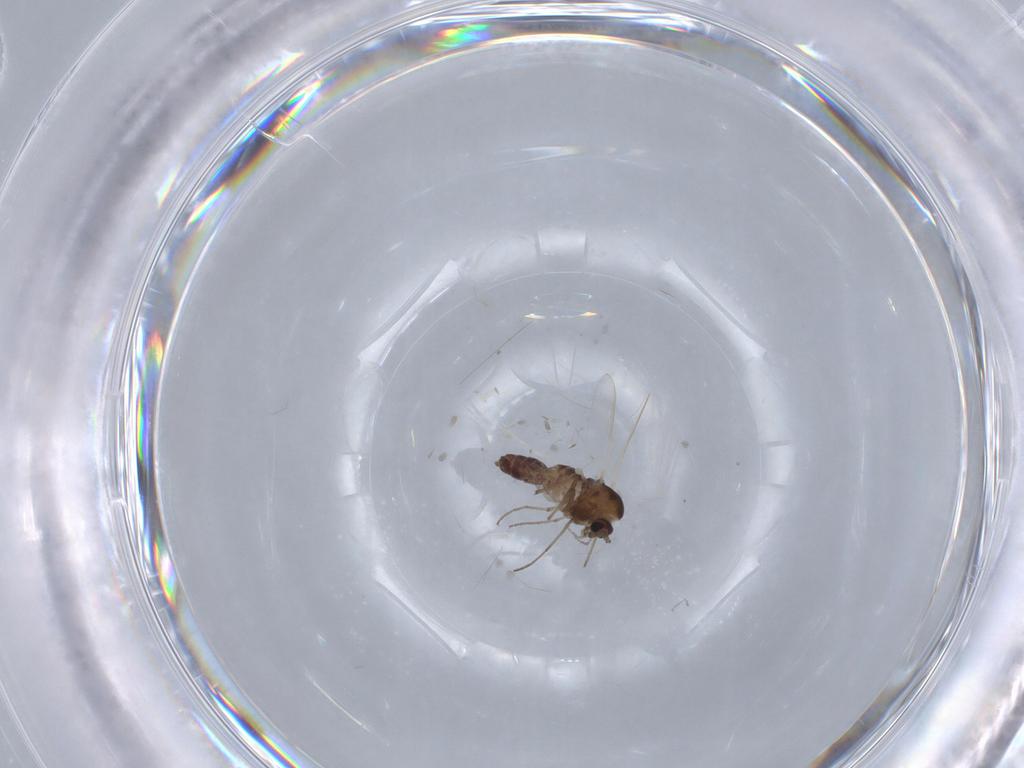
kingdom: Animalia
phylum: Arthropoda
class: Insecta
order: Diptera
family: Chironomidae
